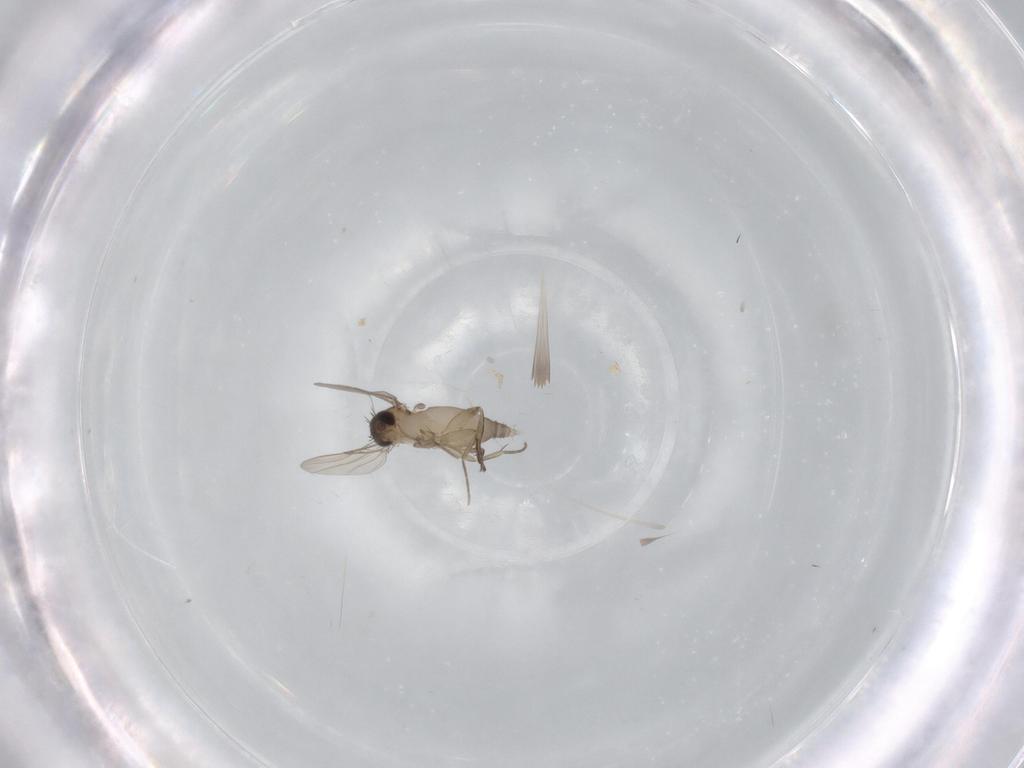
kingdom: Animalia
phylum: Arthropoda
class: Insecta
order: Diptera
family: Phoridae
